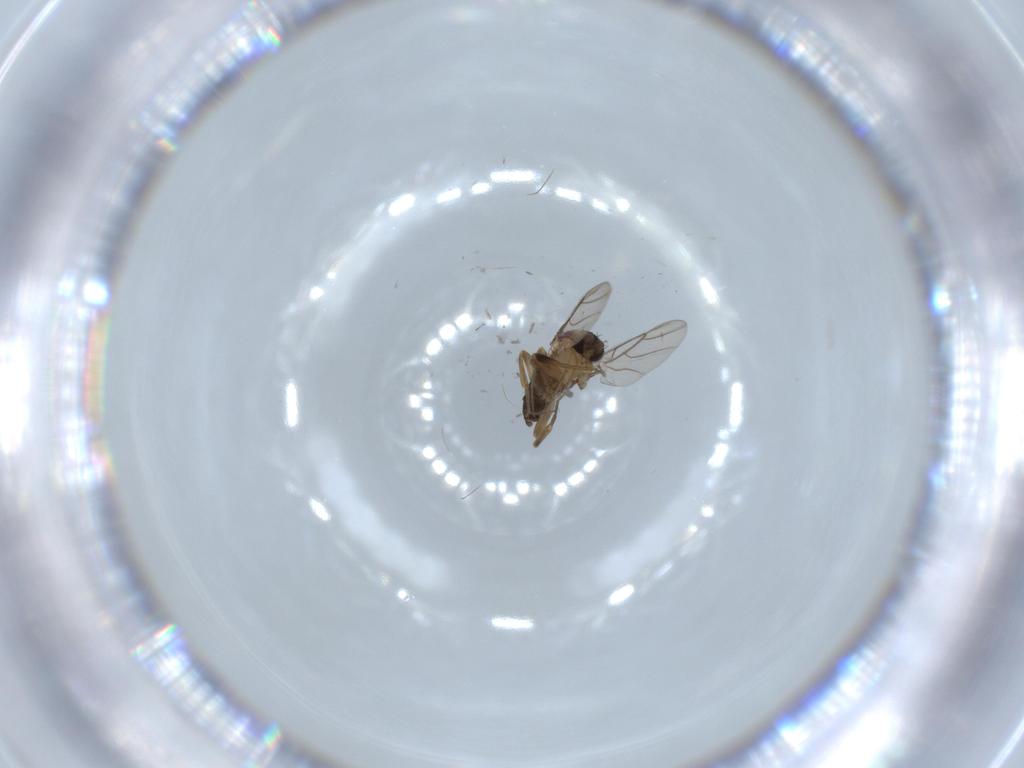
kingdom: Animalia
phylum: Arthropoda
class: Insecta
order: Diptera
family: Phoridae
